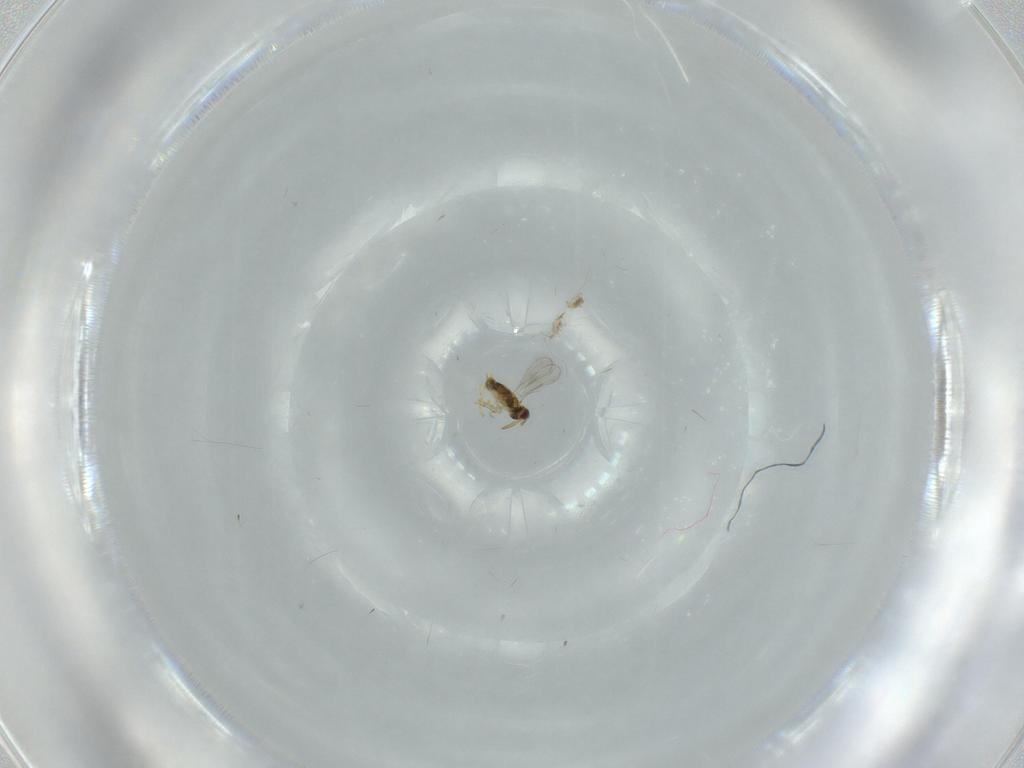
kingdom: Animalia
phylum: Arthropoda
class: Insecta
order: Hymenoptera
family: Aphelinidae
